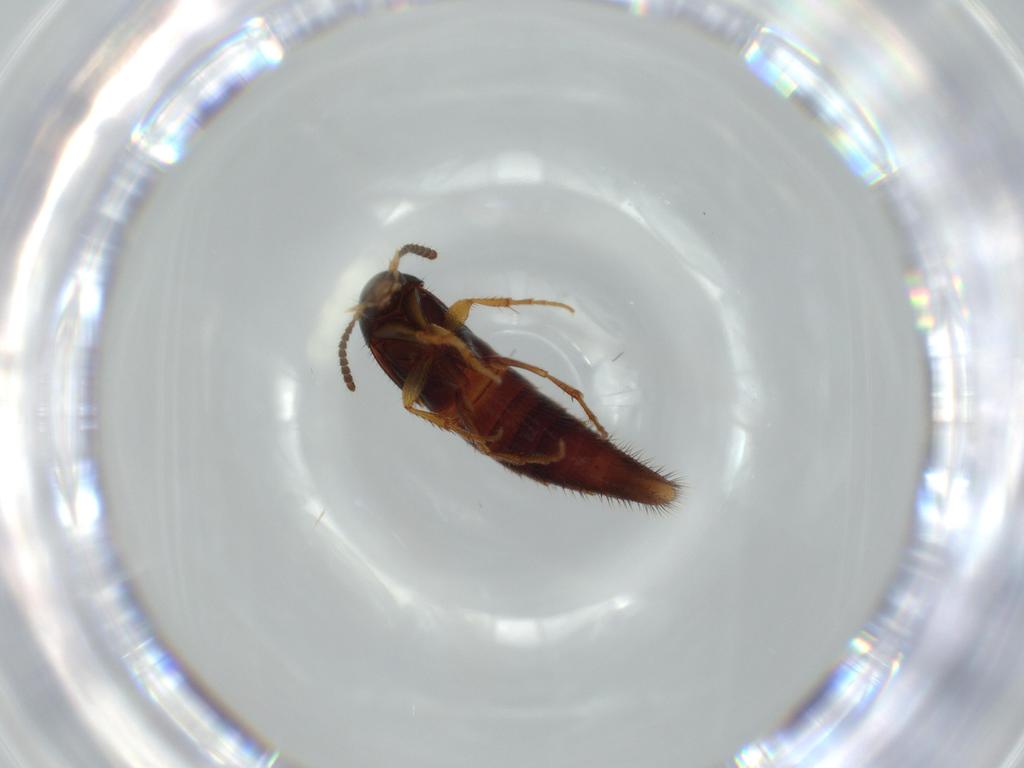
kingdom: Animalia
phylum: Arthropoda
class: Insecta
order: Coleoptera
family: Staphylinidae
